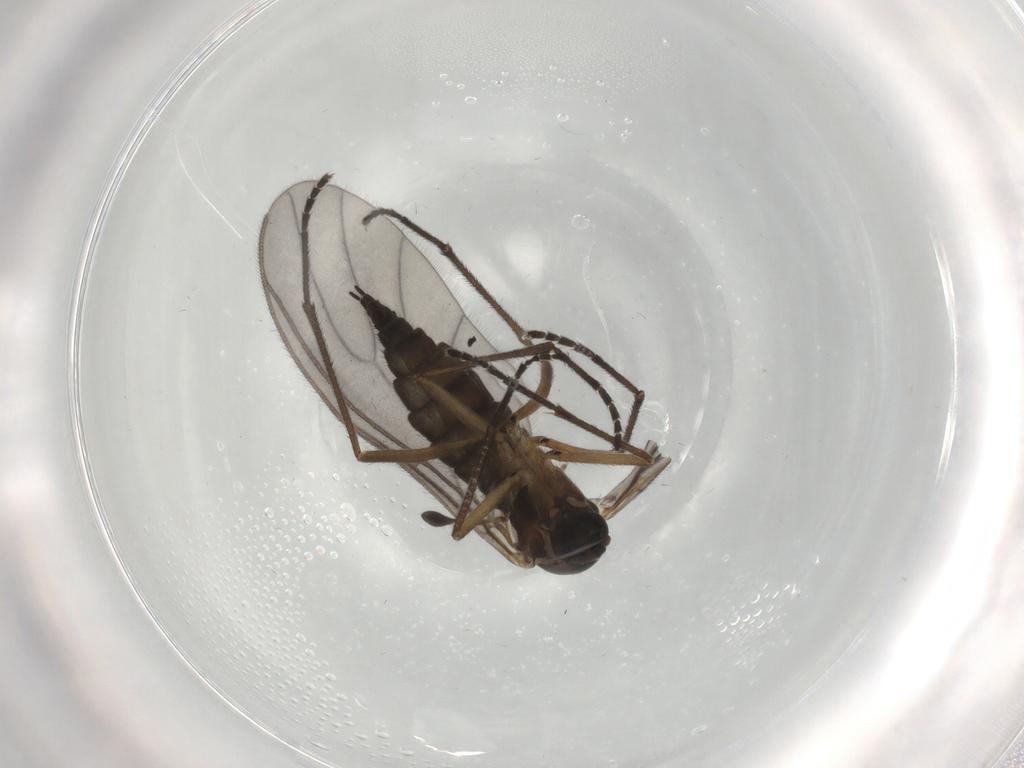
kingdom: Animalia
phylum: Arthropoda
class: Insecta
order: Diptera
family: Sciaridae
